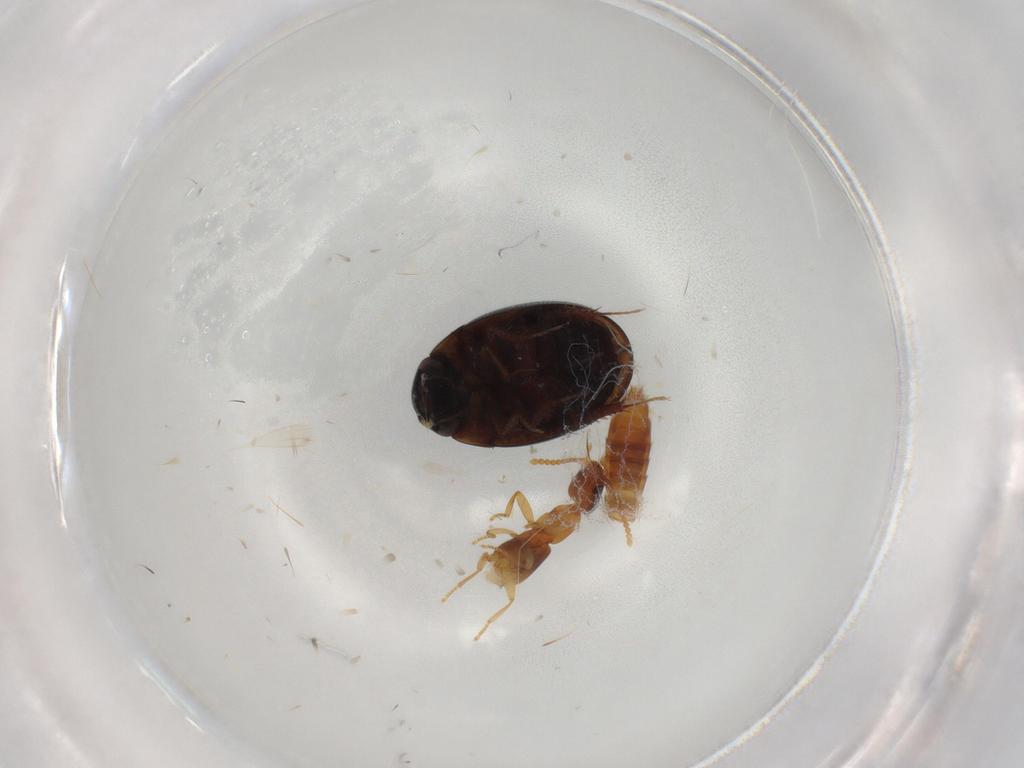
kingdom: Animalia
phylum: Arthropoda
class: Insecta
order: Coleoptera
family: Hydrophilidae
